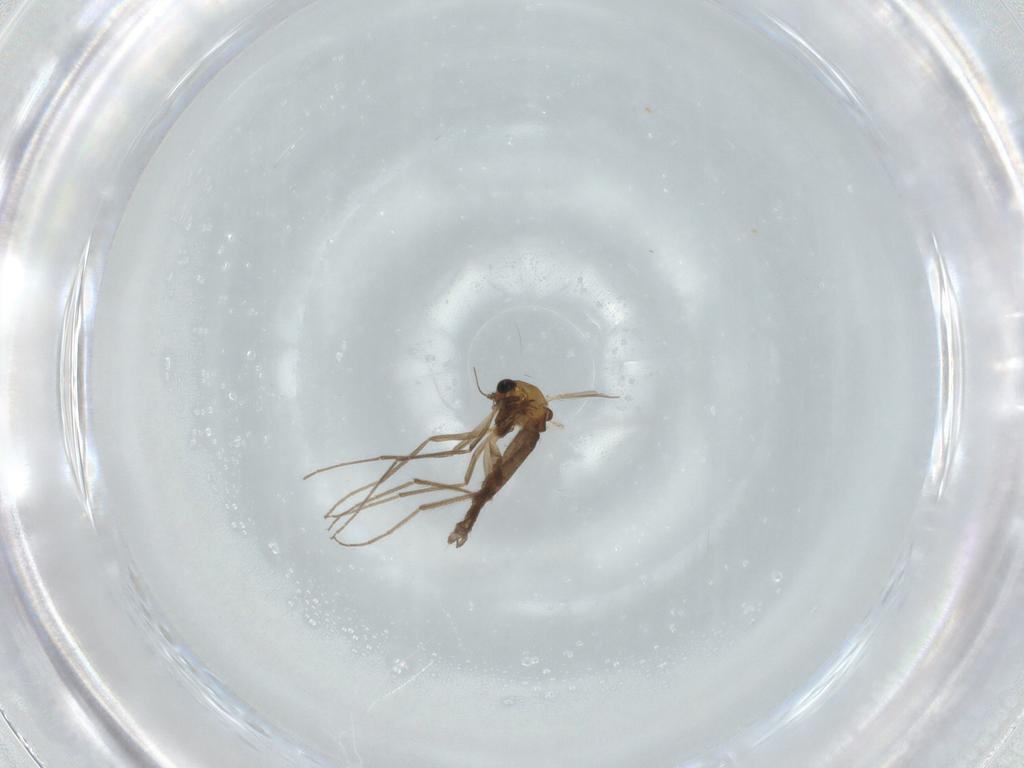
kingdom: Animalia
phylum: Arthropoda
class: Insecta
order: Diptera
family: Chironomidae
